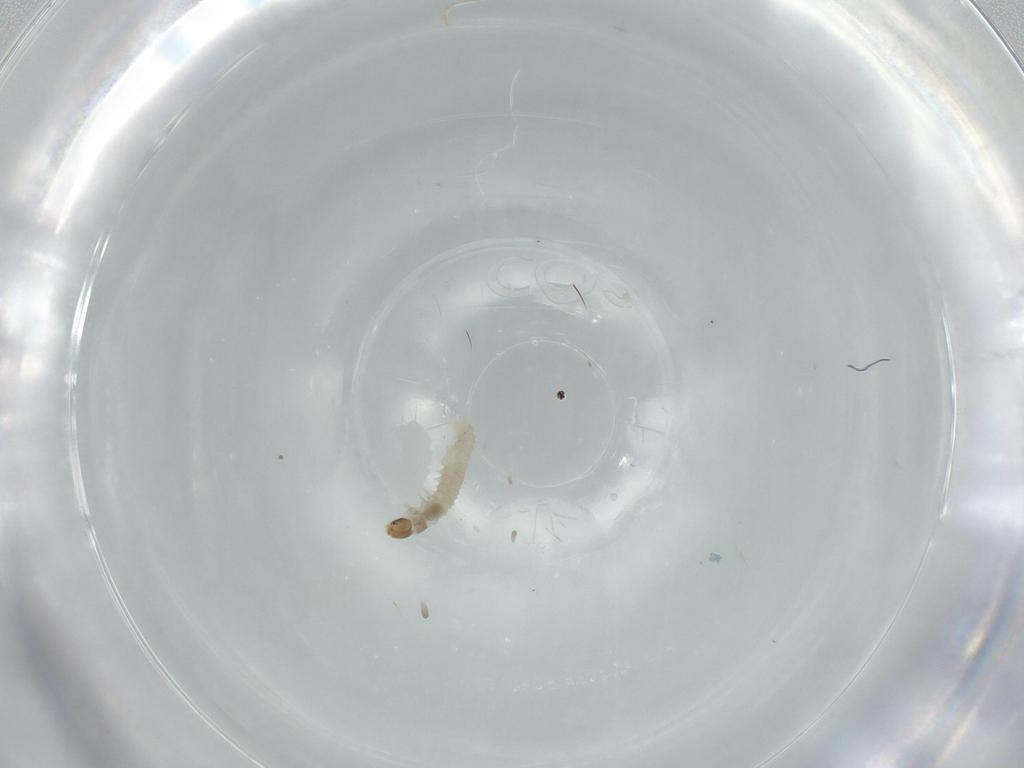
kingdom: Animalia
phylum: Arthropoda
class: Insecta
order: Lepidoptera
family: Tineidae
